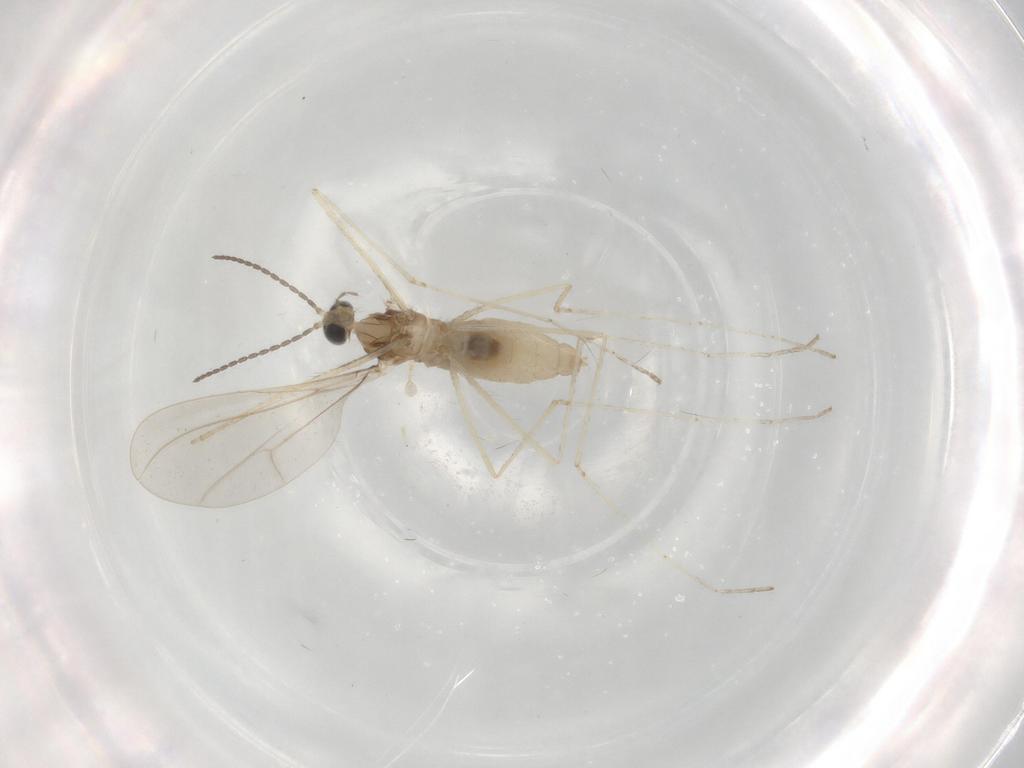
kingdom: Animalia
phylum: Arthropoda
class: Insecta
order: Diptera
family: Cecidomyiidae
